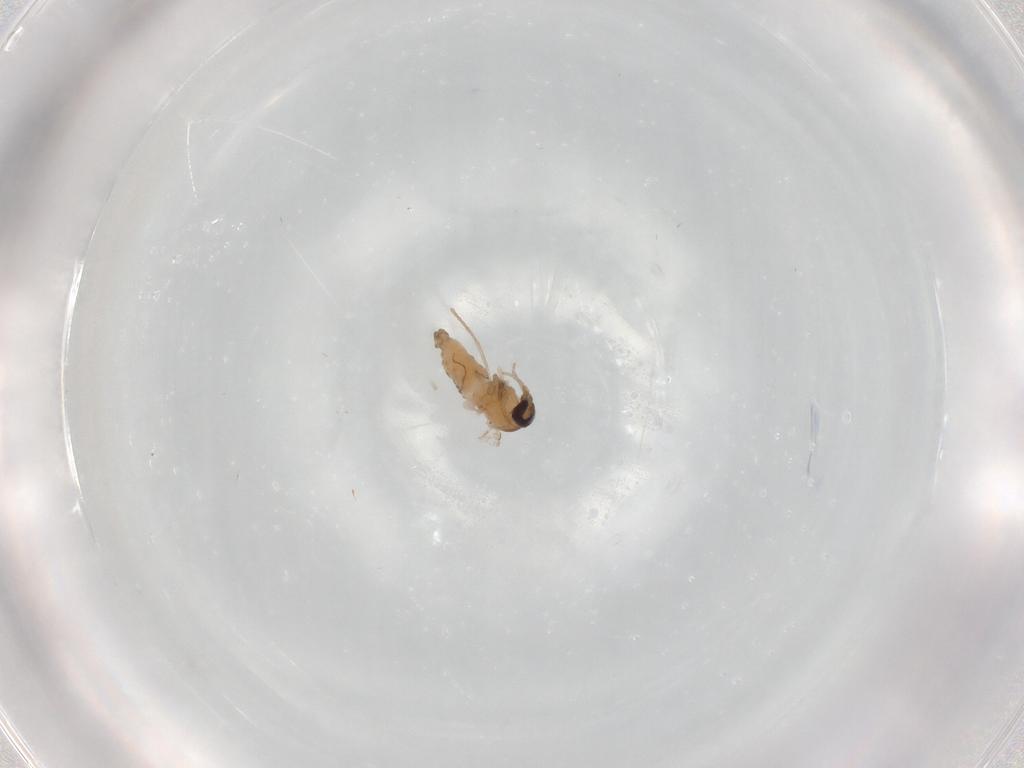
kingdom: Animalia
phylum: Arthropoda
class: Insecta
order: Diptera
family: Psychodidae
